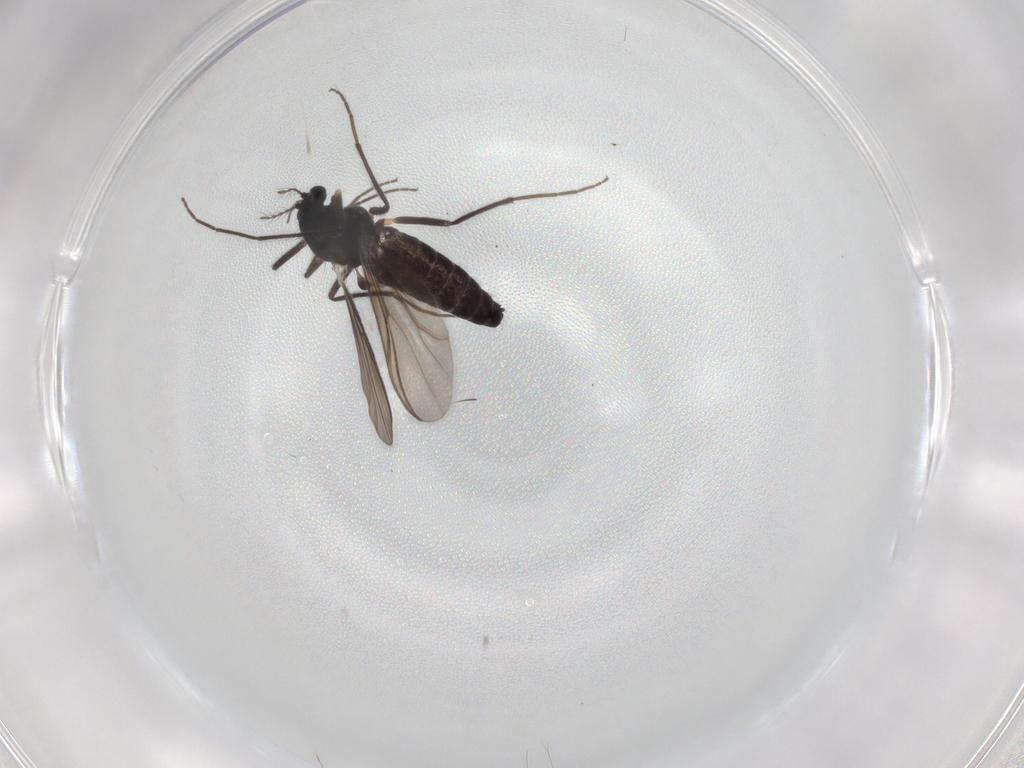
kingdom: Animalia
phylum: Arthropoda
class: Insecta
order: Diptera
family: Chironomidae
